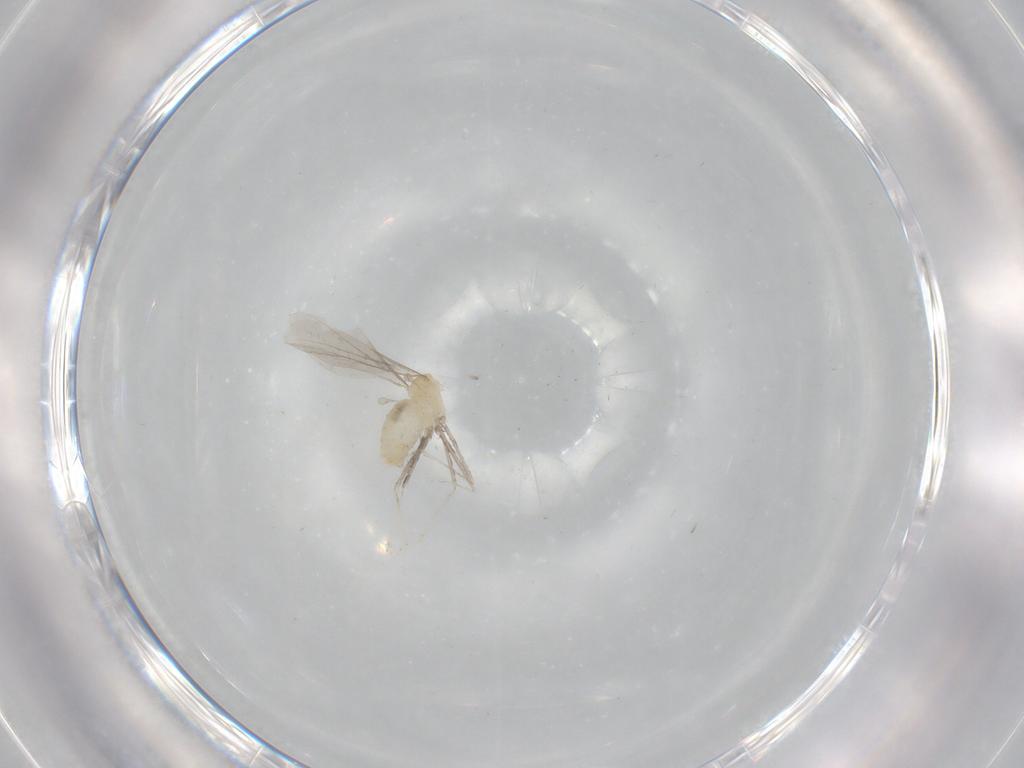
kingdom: Animalia
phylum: Arthropoda
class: Insecta
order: Diptera
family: Cecidomyiidae
